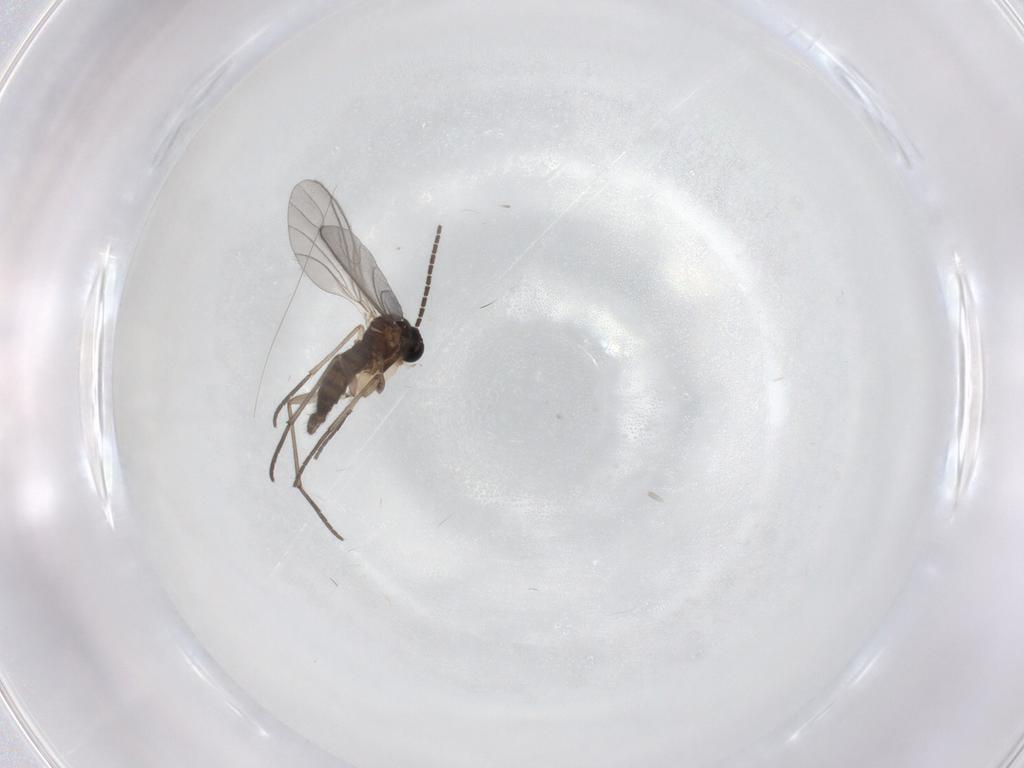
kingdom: Animalia
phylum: Arthropoda
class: Insecta
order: Diptera
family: Sciaridae
